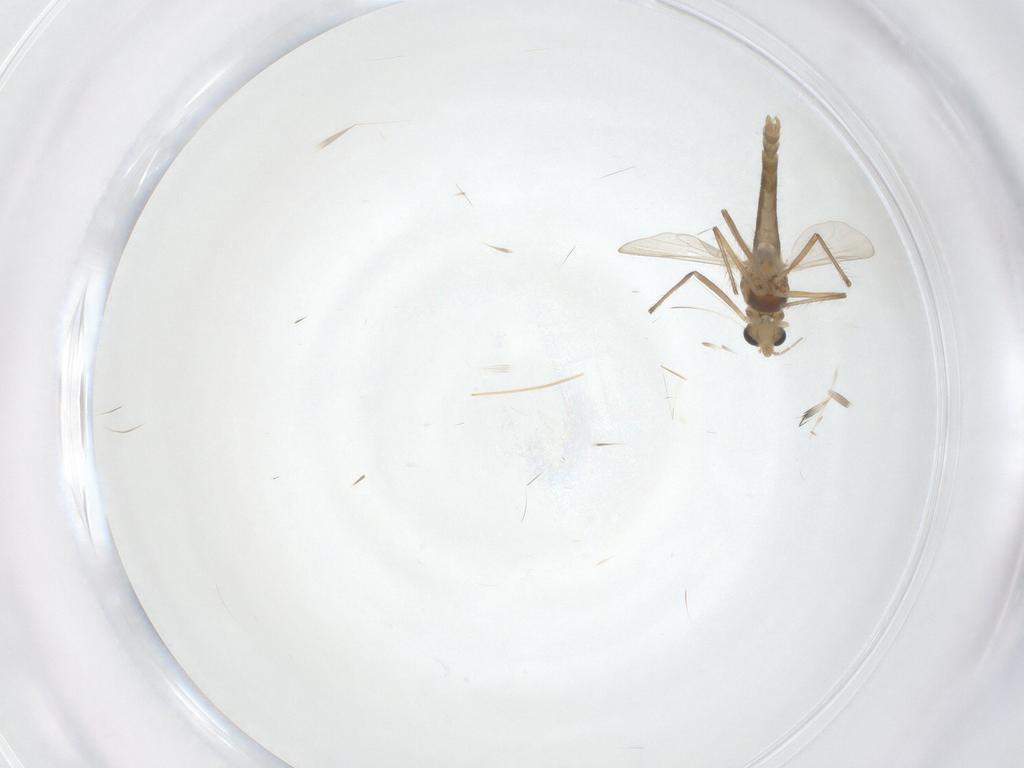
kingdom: Animalia
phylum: Arthropoda
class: Insecta
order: Diptera
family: Chironomidae
